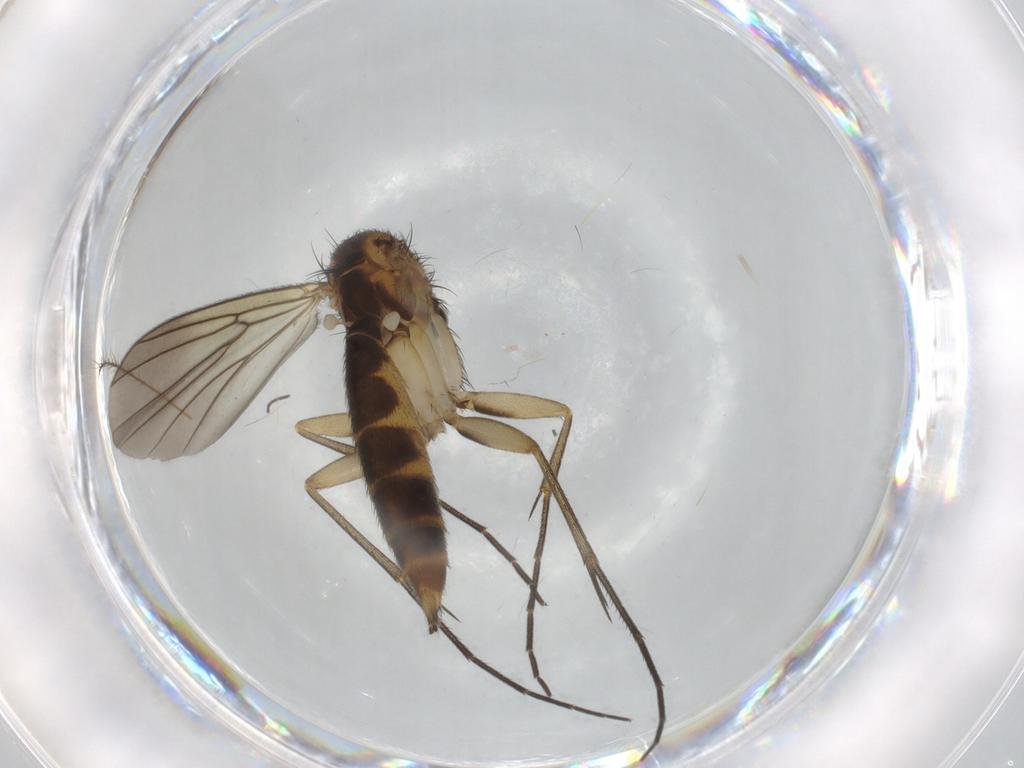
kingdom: Animalia
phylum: Arthropoda
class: Insecta
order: Diptera
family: Mycetophilidae
